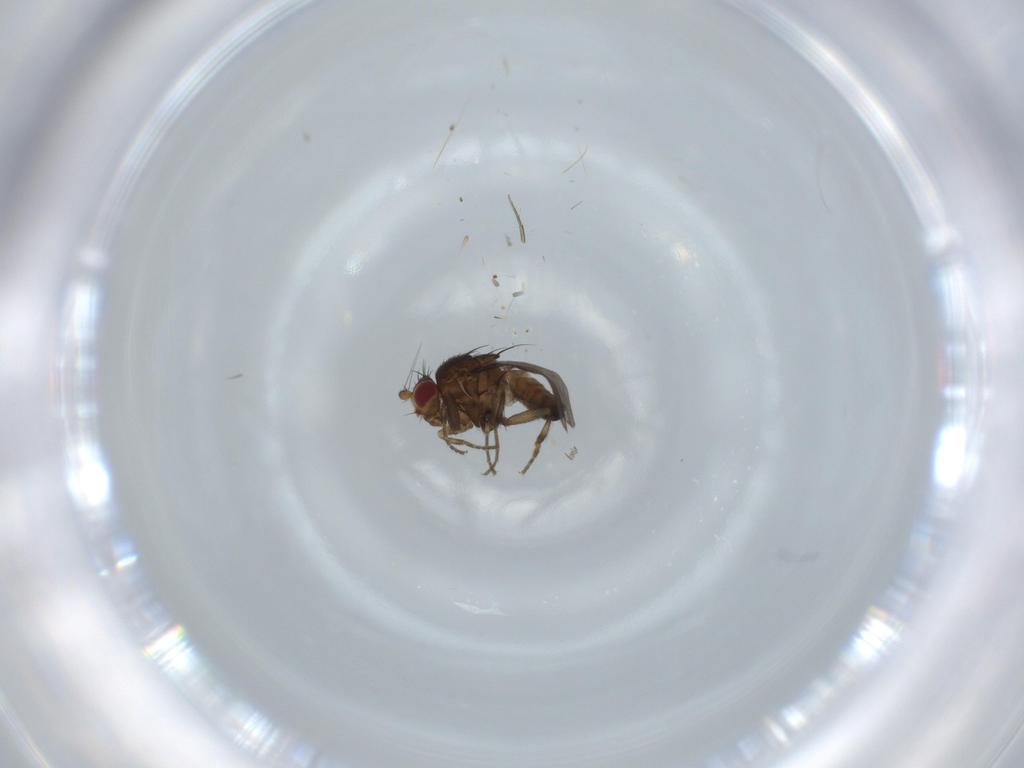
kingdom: Animalia
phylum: Arthropoda
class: Insecta
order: Diptera
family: Sphaeroceridae
